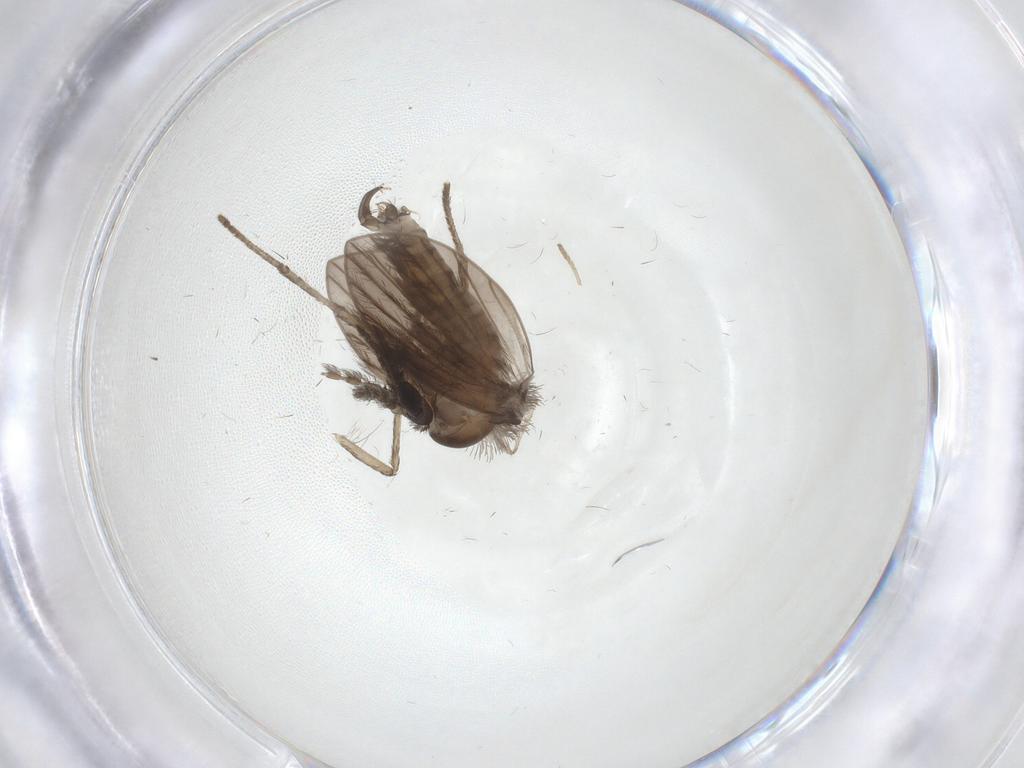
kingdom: Animalia
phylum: Arthropoda
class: Insecta
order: Diptera
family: Psychodidae
